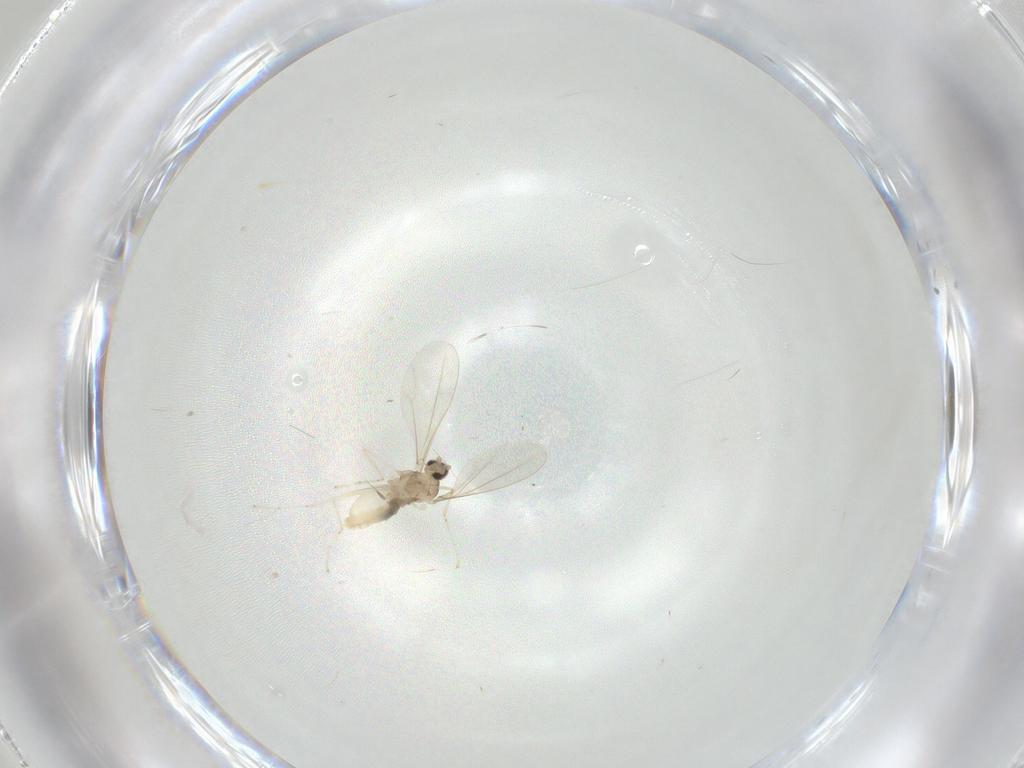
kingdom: Animalia
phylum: Arthropoda
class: Insecta
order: Diptera
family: Cecidomyiidae
